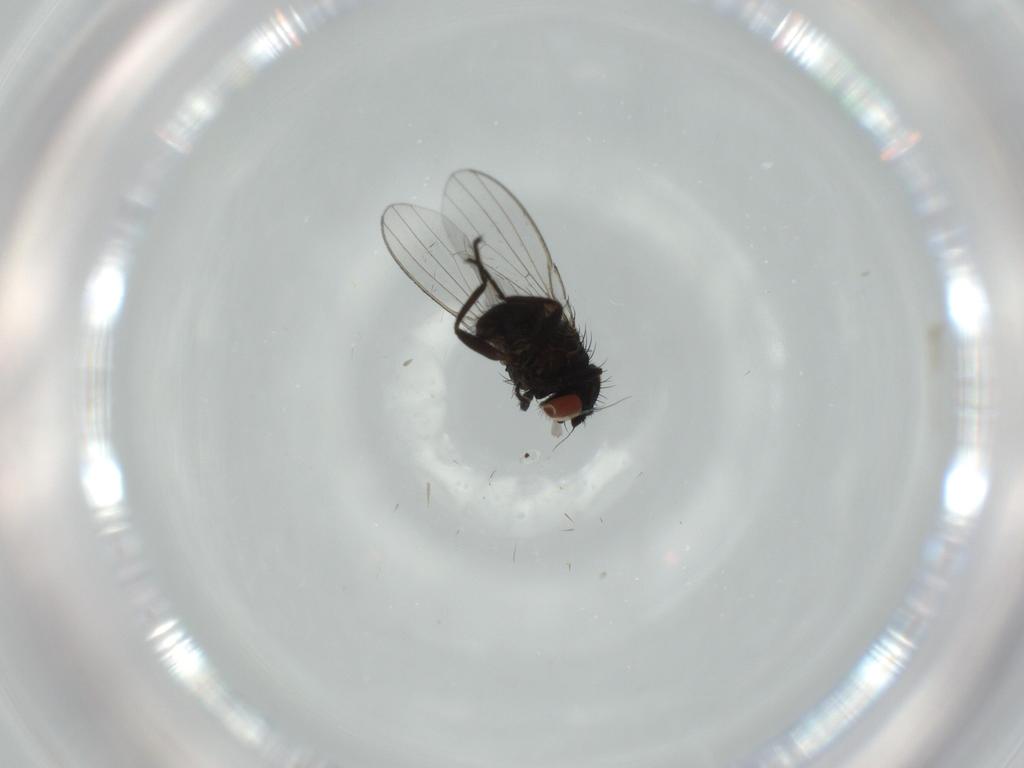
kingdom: Animalia
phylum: Arthropoda
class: Insecta
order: Diptera
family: Milichiidae
